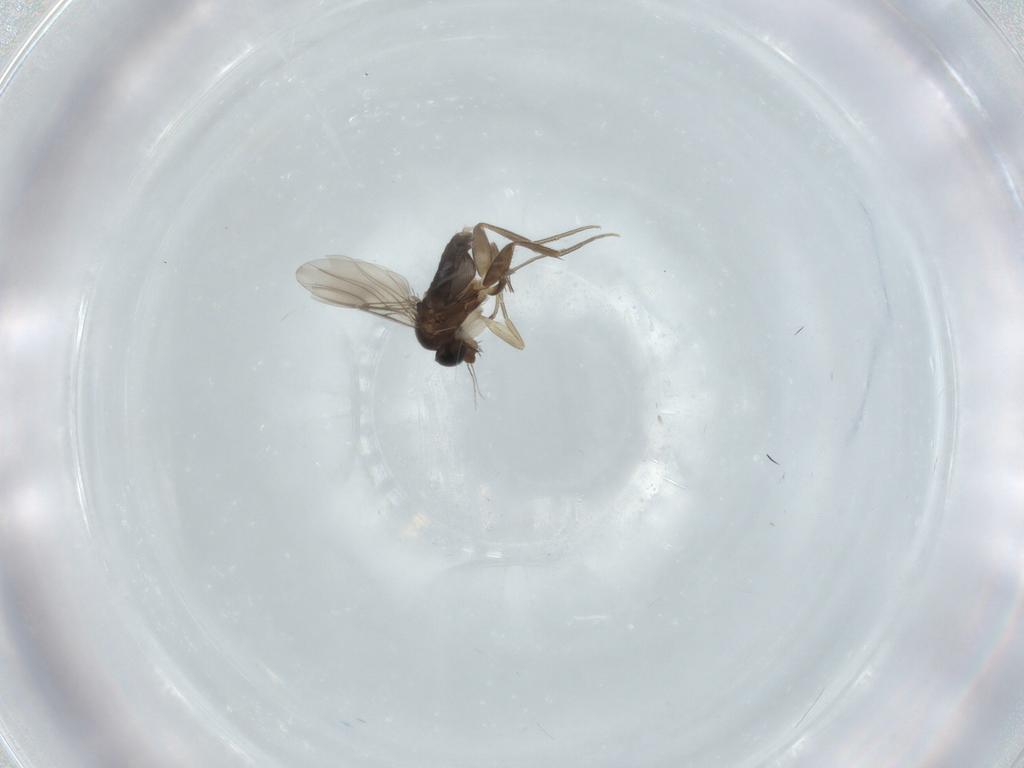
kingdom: Animalia
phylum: Arthropoda
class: Insecta
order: Diptera
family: Phoridae
